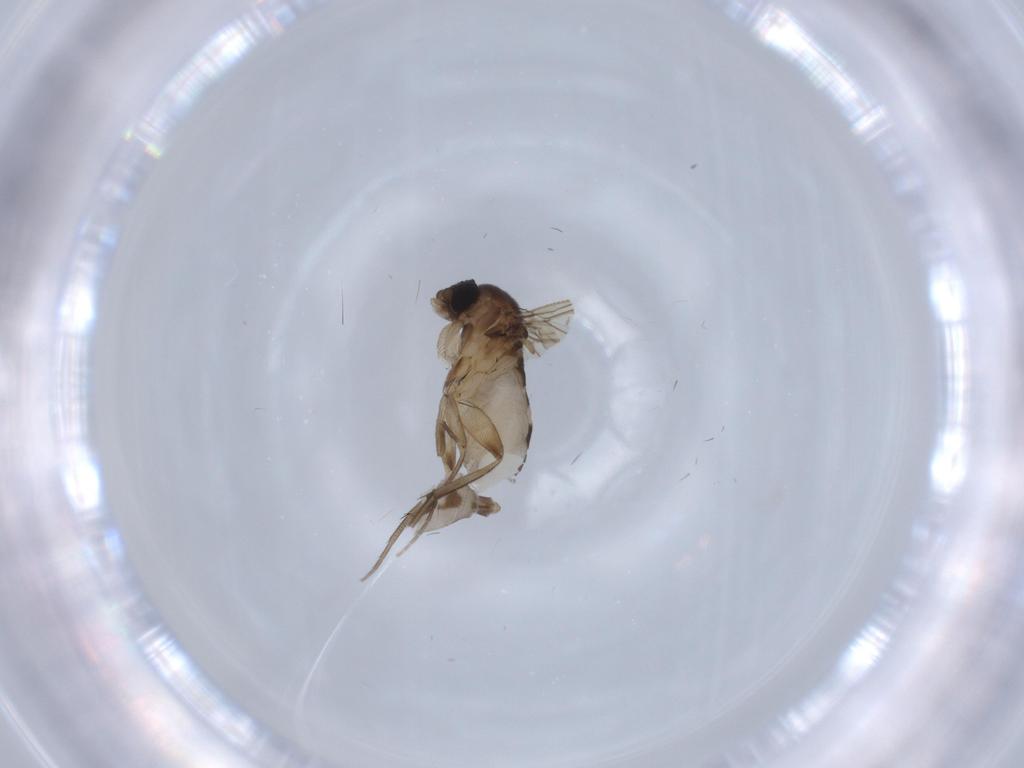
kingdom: Animalia
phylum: Arthropoda
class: Insecta
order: Diptera
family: Phoridae
